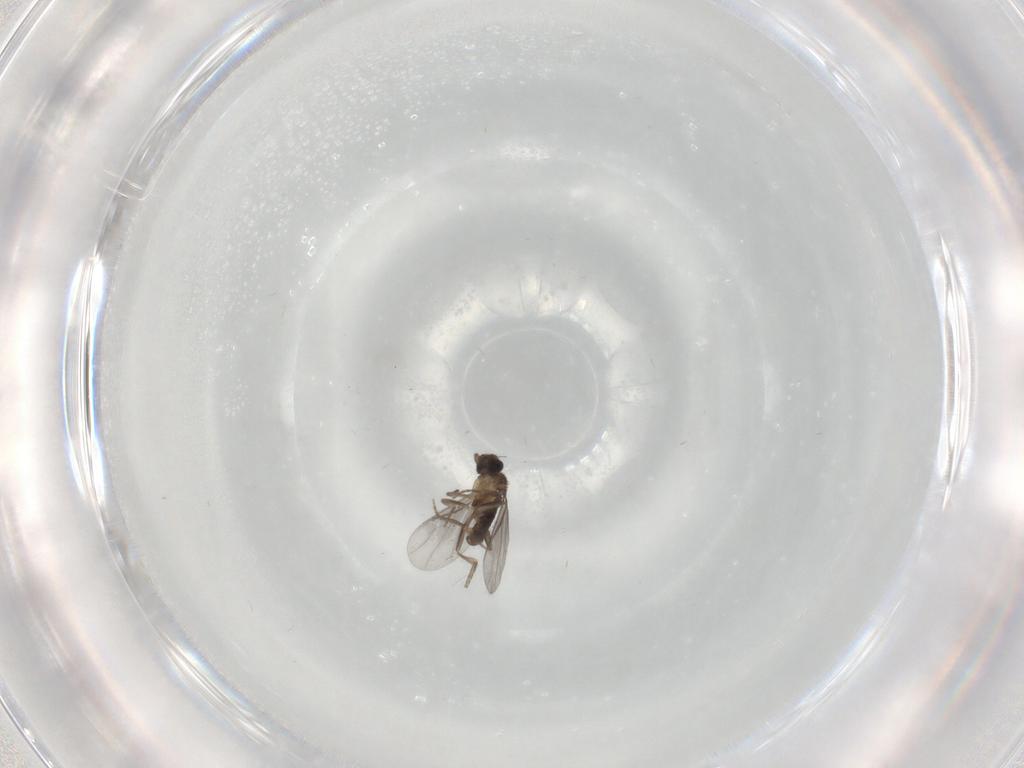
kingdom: Animalia
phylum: Arthropoda
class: Insecta
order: Diptera
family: Phoridae
